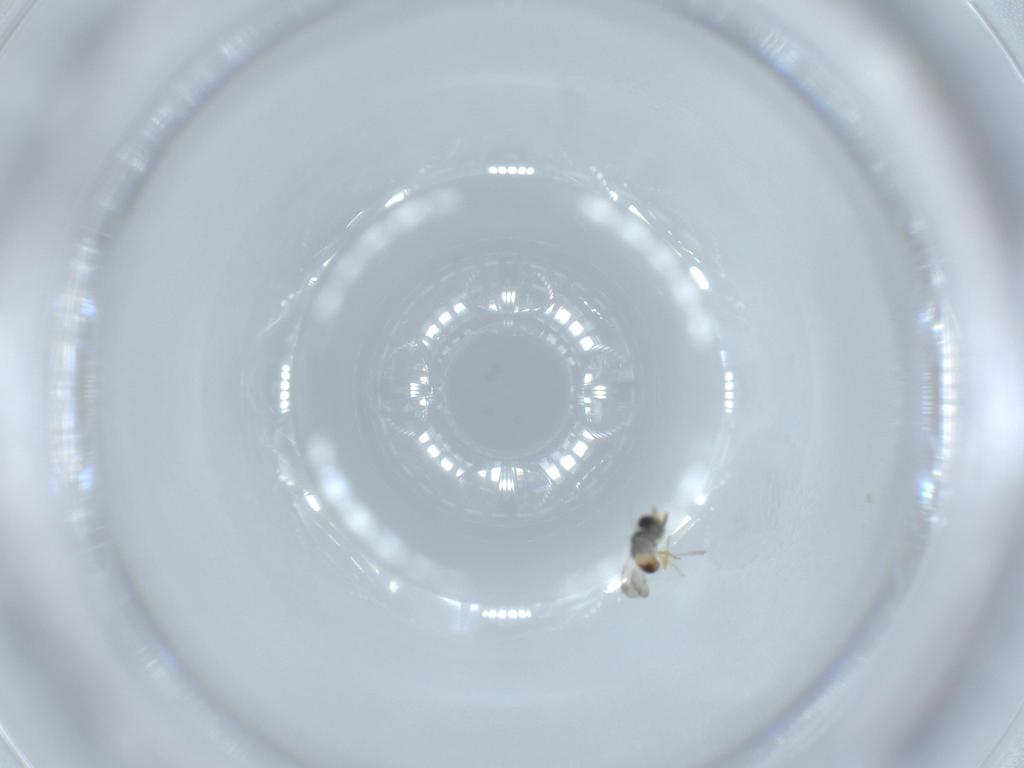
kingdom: Animalia
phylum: Arthropoda
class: Insecta
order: Hymenoptera
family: Ceraphronidae
